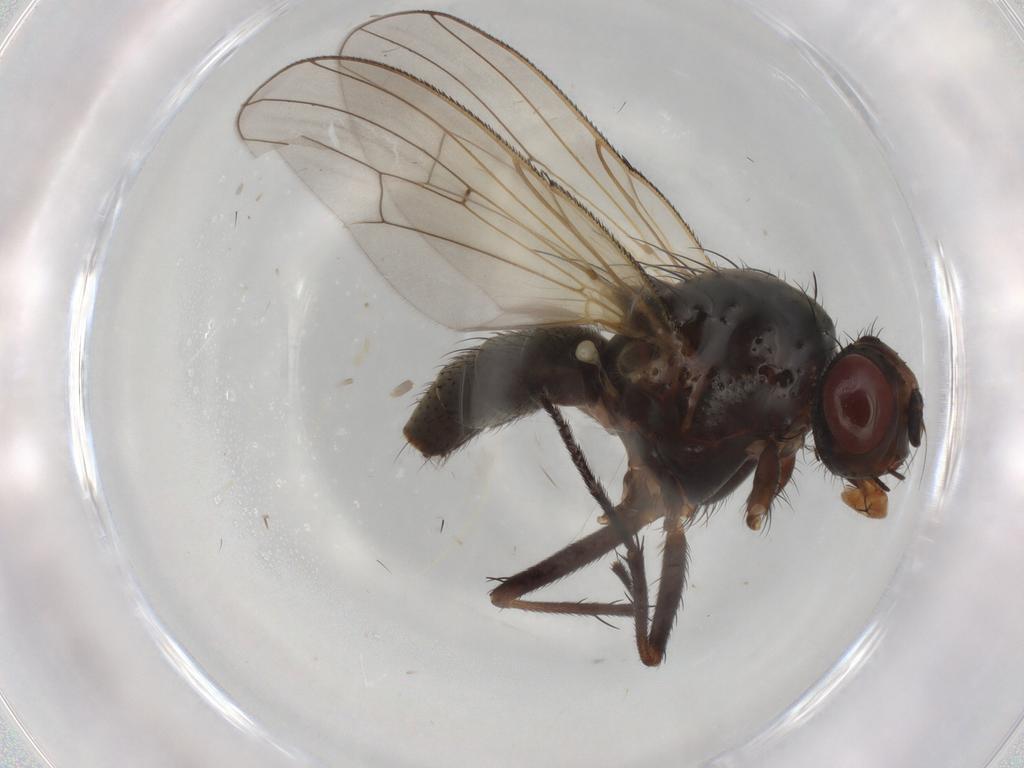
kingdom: Animalia
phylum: Arthropoda
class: Insecta
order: Diptera
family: Anthomyiidae
